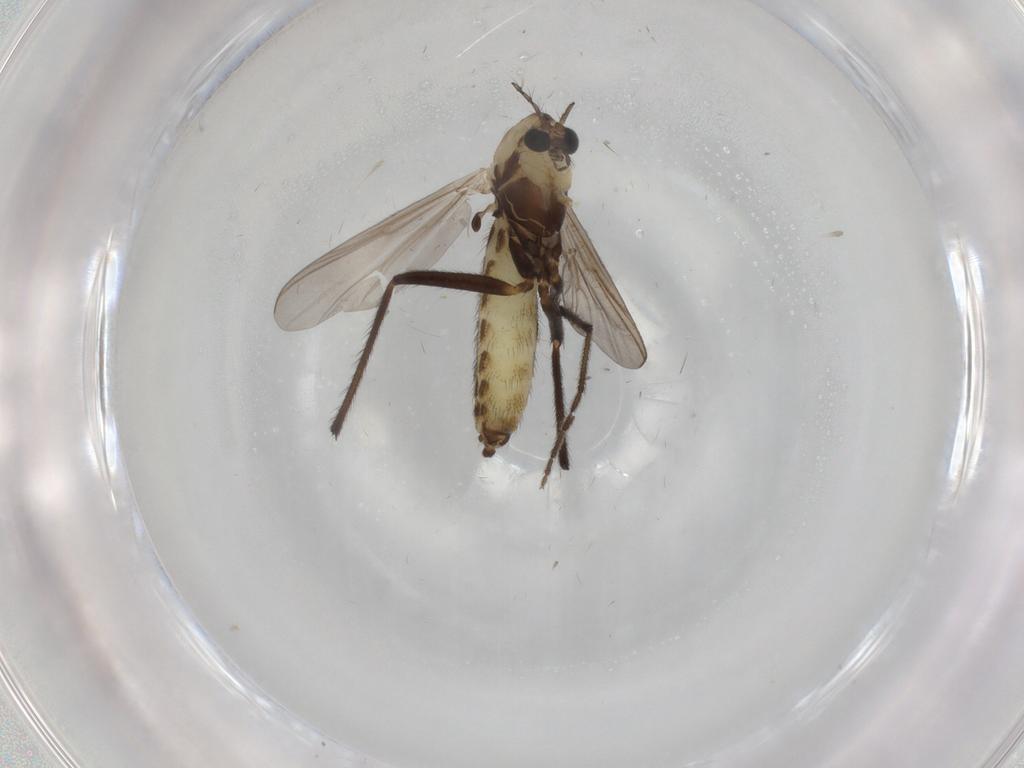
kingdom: Animalia
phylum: Arthropoda
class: Insecta
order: Diptera
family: Chironomidae
